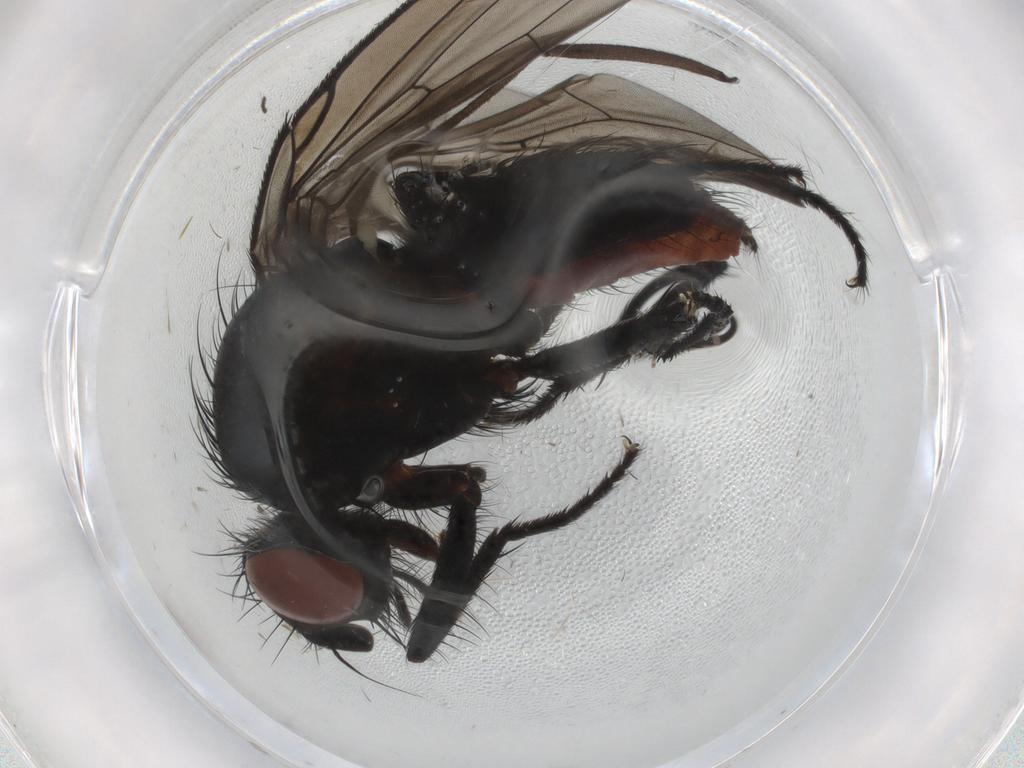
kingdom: Animalia
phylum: Arthropoda
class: Insecta
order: Diptera
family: Anthomyiidae
